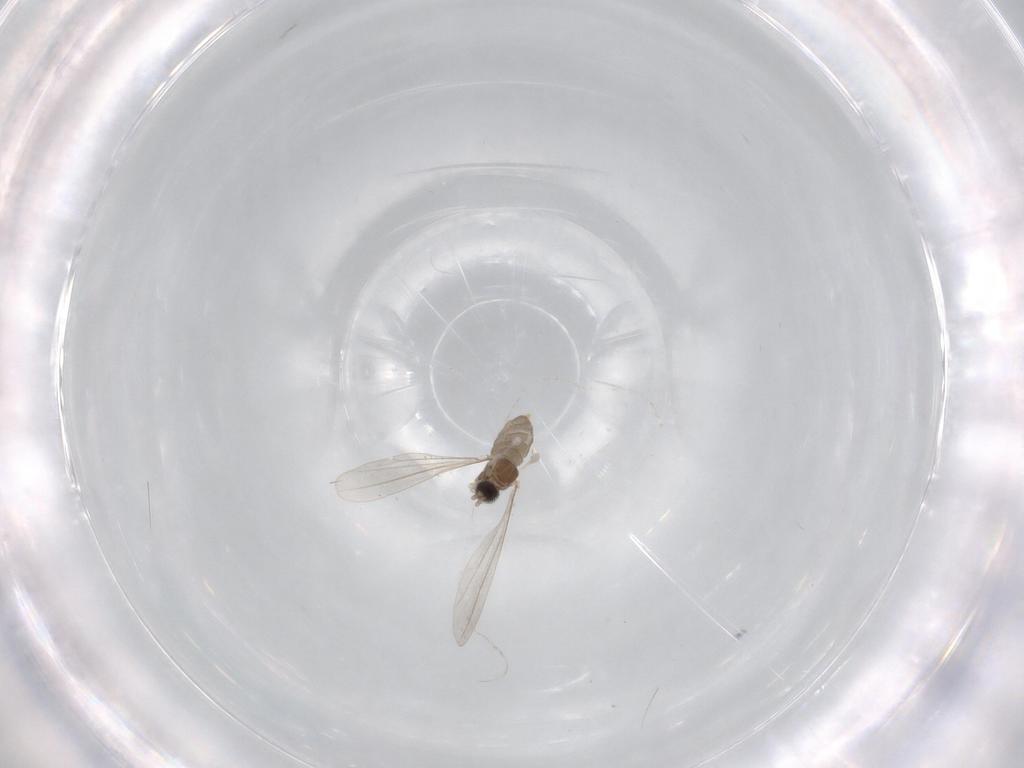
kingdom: Animalia
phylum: Arthropoda
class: Insecta
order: Diptera
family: Cecidomyiidae
